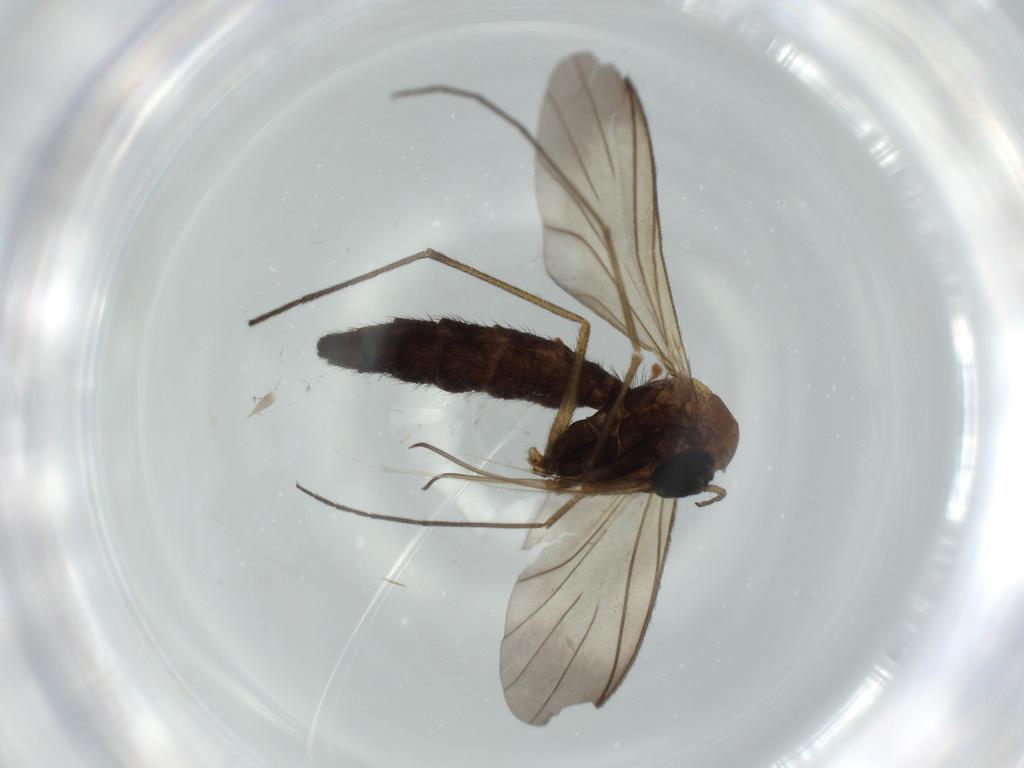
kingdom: Animalia
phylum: Arthropoda
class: Insecta
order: Diptera
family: Keroplatidae
